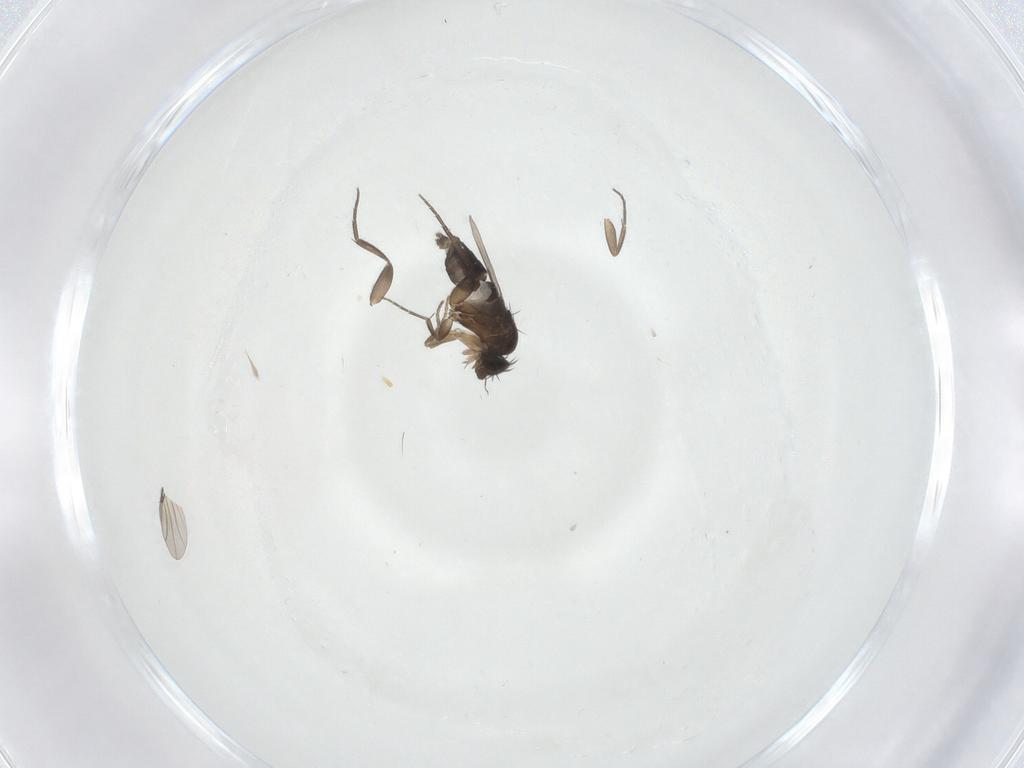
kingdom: Animalia
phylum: Arthropoda
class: Insecta
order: Diptera
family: Phoridae
